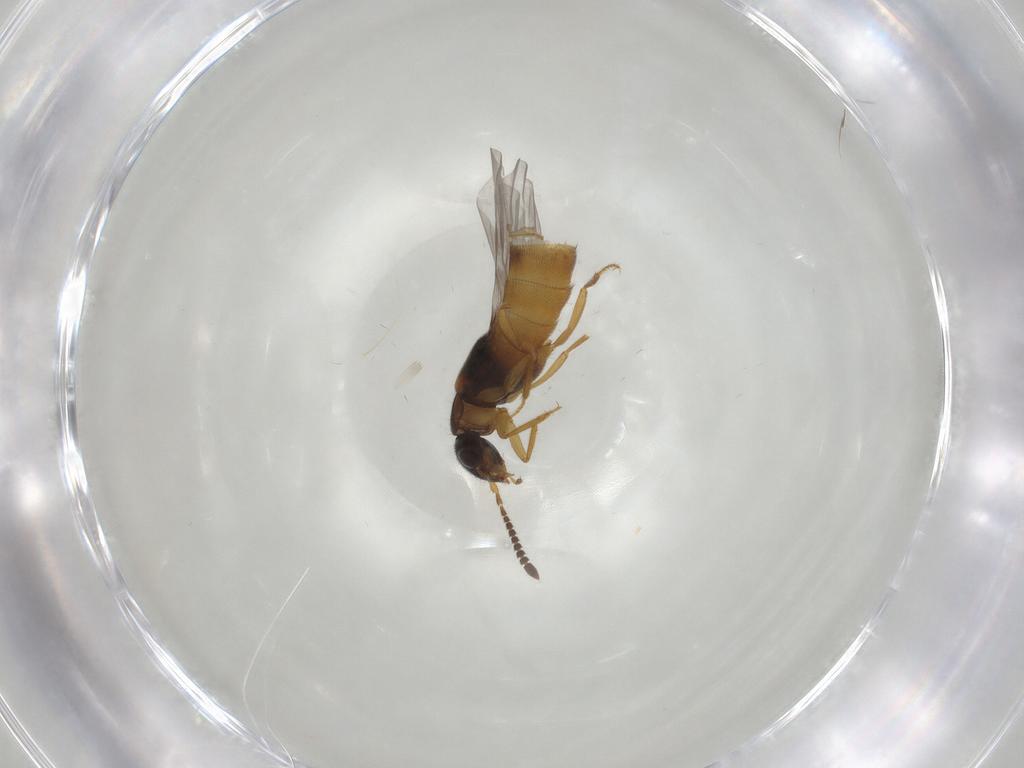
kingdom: Animalia
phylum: Arthropoda
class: Insecta
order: Coleoptera
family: Staphylinidae
